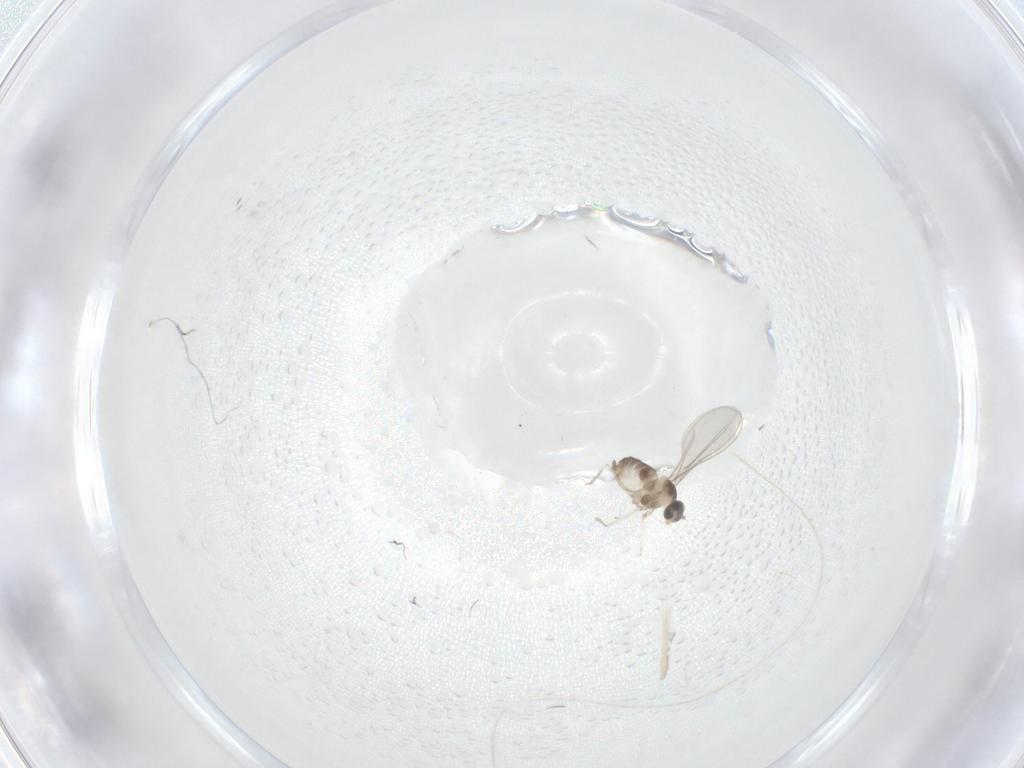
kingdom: Animalia
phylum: Arthropoda
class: Insecta
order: Diptera
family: Cecidomyiidae
